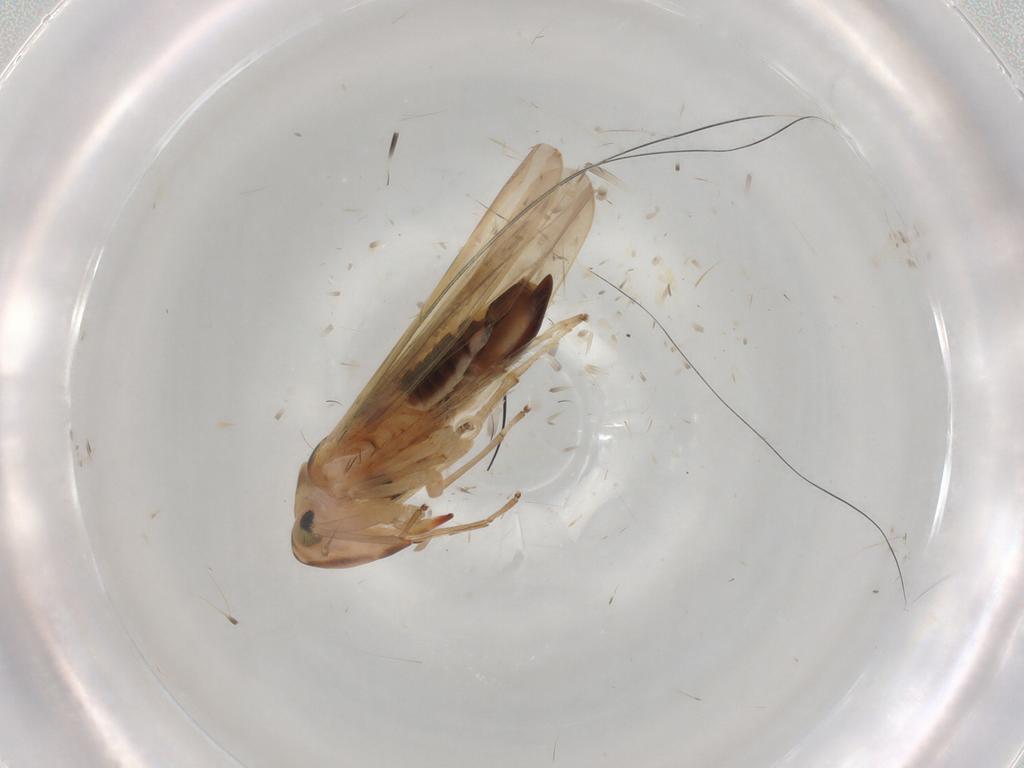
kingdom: Animalia
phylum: Arthropoda
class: Insecta
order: Hemiptera
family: Cicadellidae
